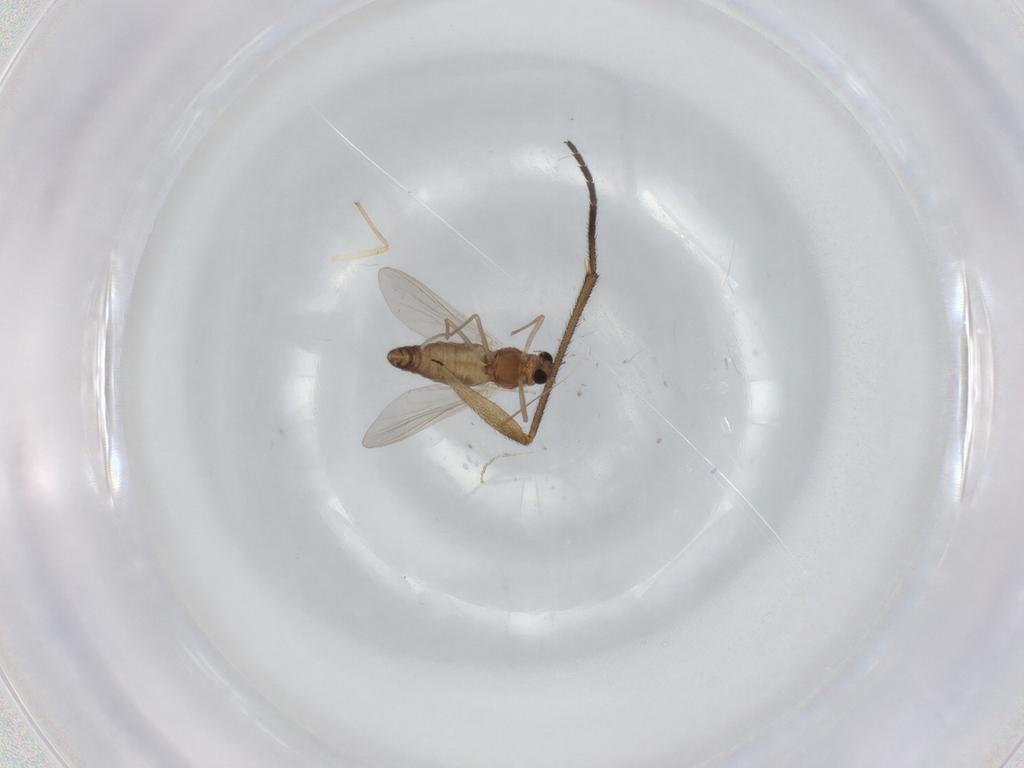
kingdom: Animalia
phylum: Arthropoda
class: Insecta
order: Diptera
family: Chironomidae
